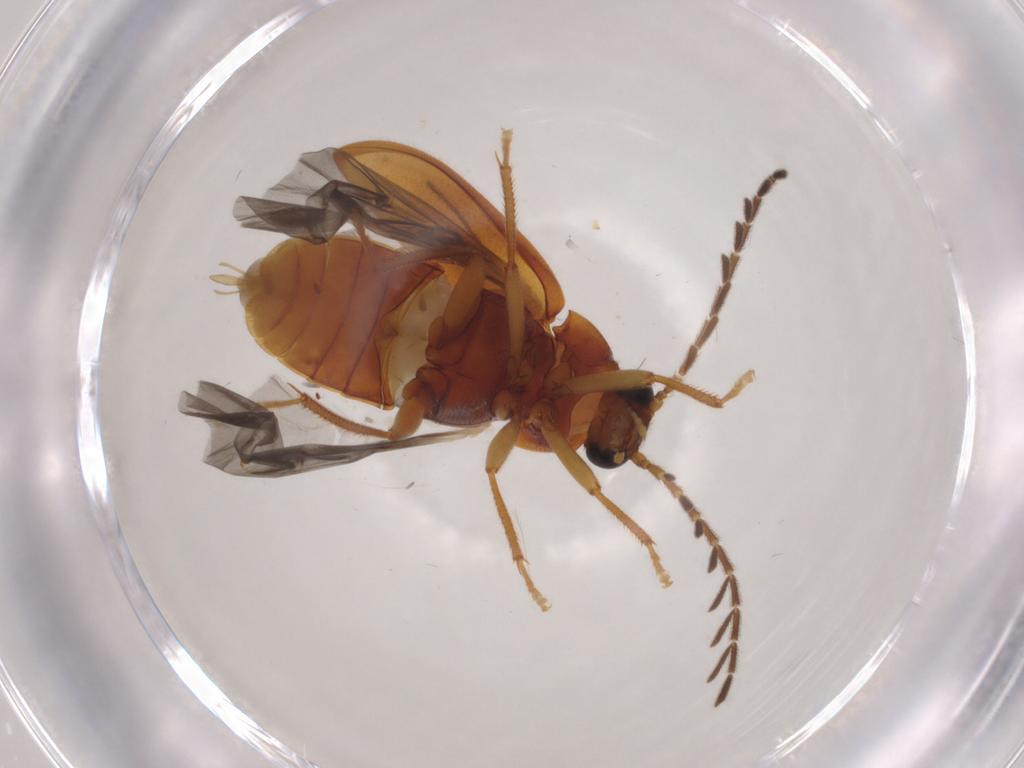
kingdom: Animalia
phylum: Arthropoda
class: Insecta
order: Coleoptera
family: Ptilodactylidae
